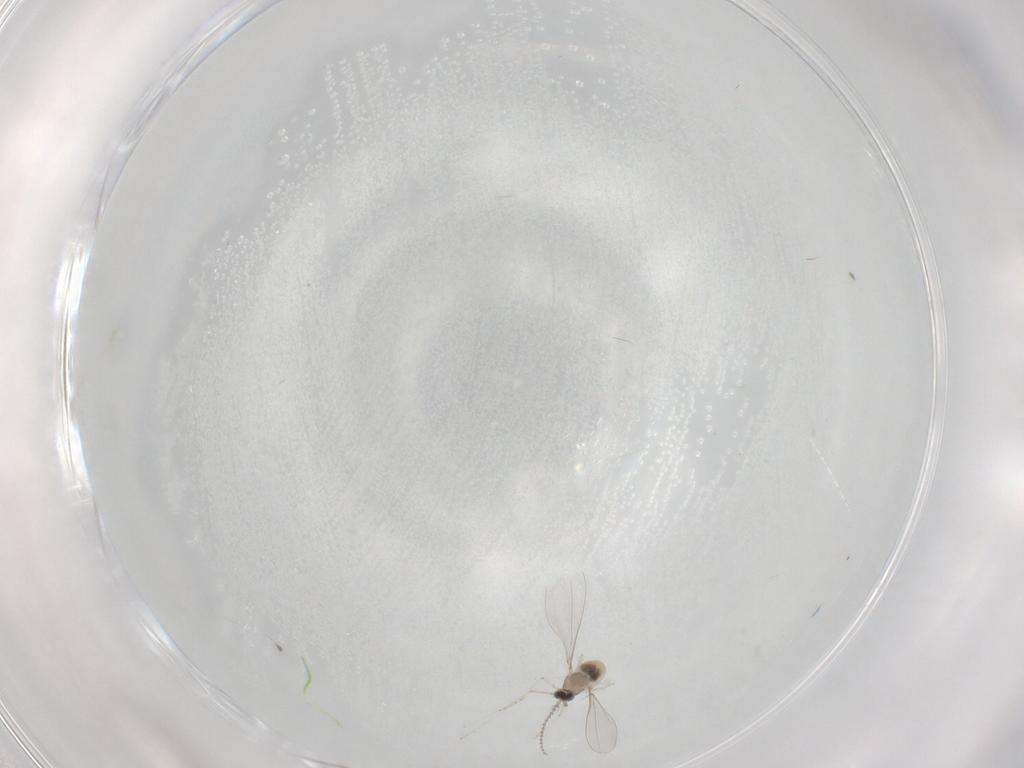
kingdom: Animalia
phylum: Arthropoda
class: Insecta
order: Diptera
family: Cecidomyiidae
